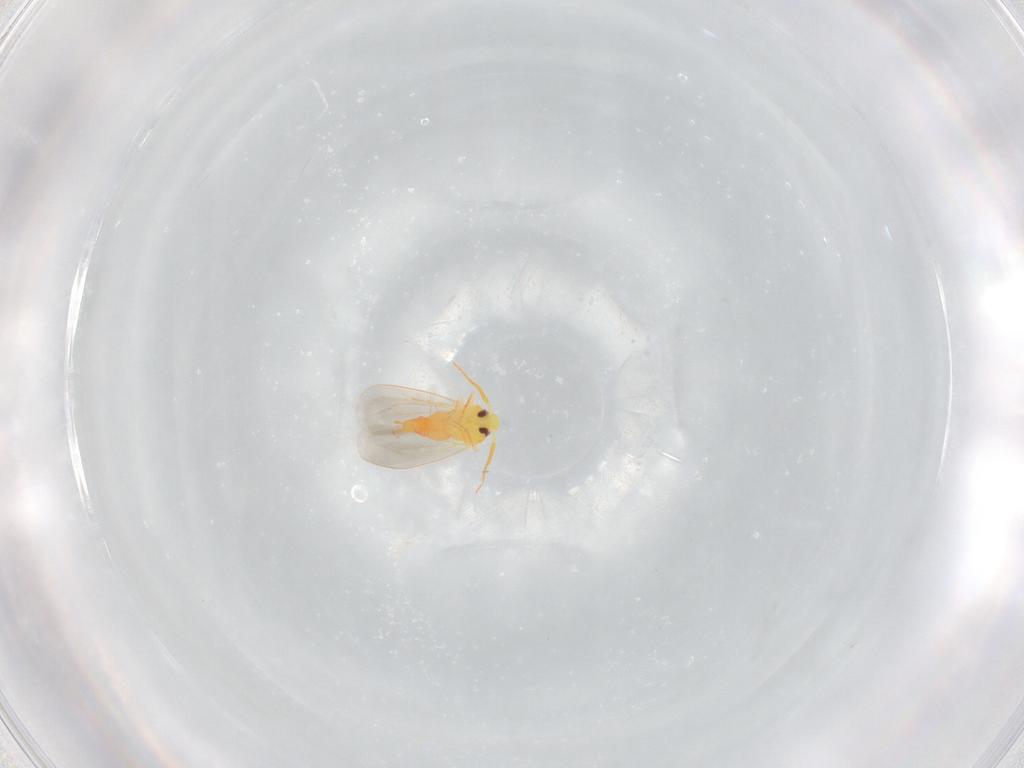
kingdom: Animalia
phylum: Arthropoda
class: Insecta
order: Hemiptera
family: Aleyrodidae
